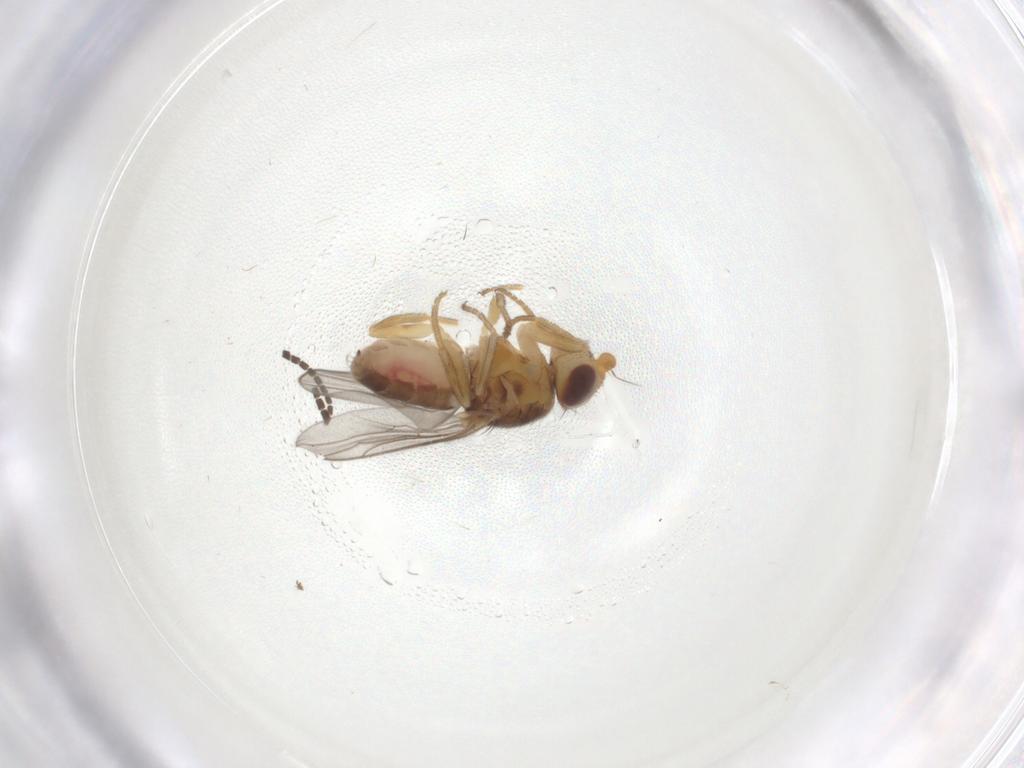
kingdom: Animalia
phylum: Arthropoda
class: Insecta
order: Diptera
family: Chloropidae
